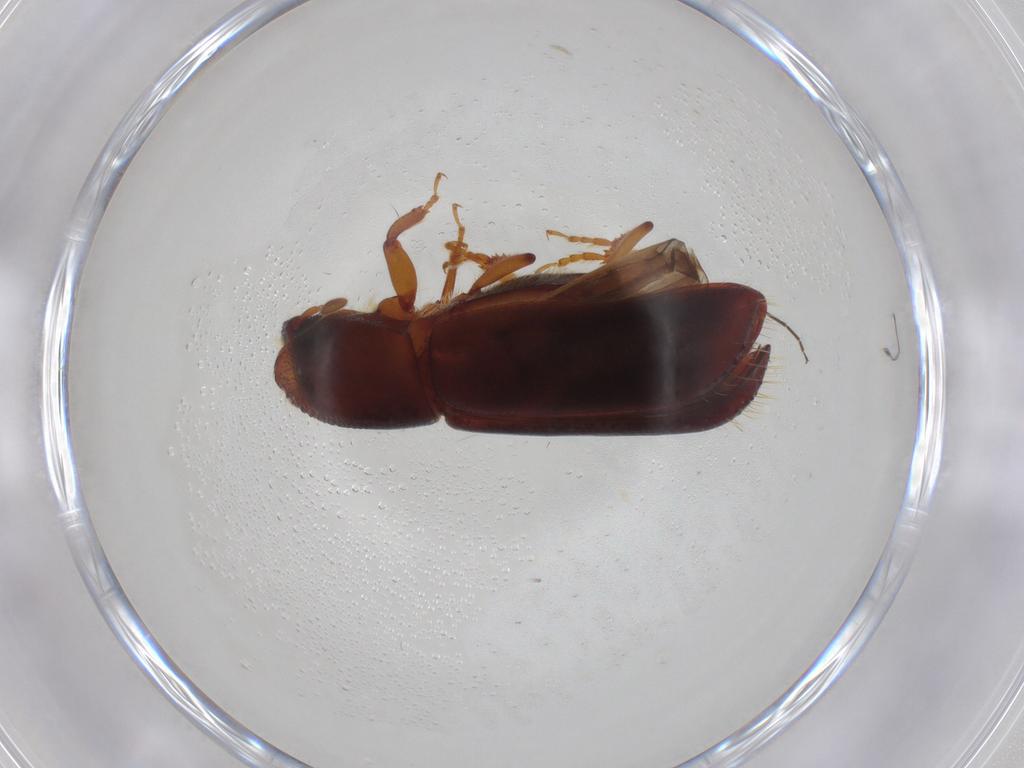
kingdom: Animalia
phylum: Arthropoda
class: Insecta
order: Coleoptera
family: Curculionidae
